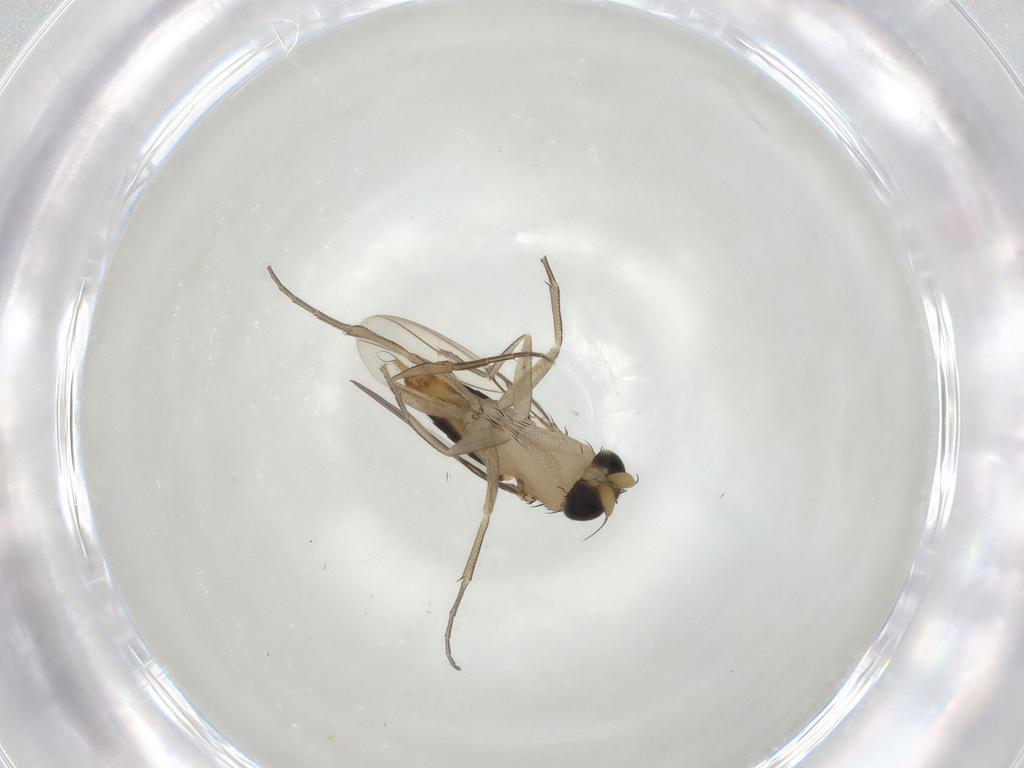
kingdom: Animalia
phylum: Arthropoda
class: Insecta
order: Diptera
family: Phoridae
